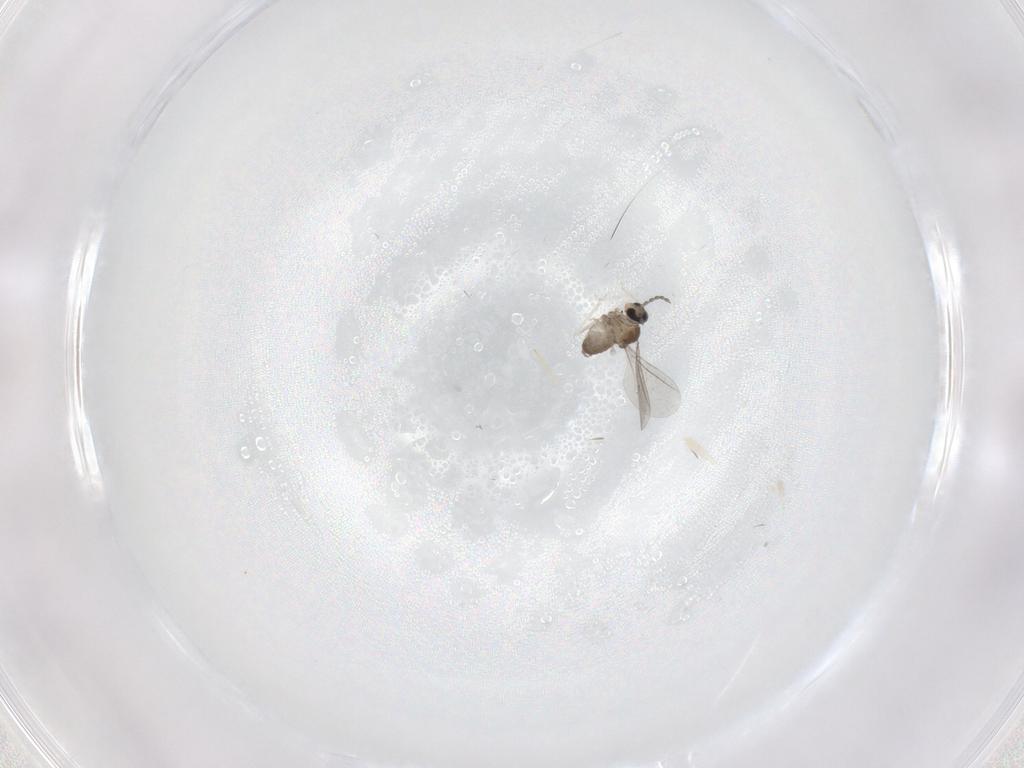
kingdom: Animalia
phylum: Arthropoda
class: Insecta
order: Diptera
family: Cecidomyiidae
